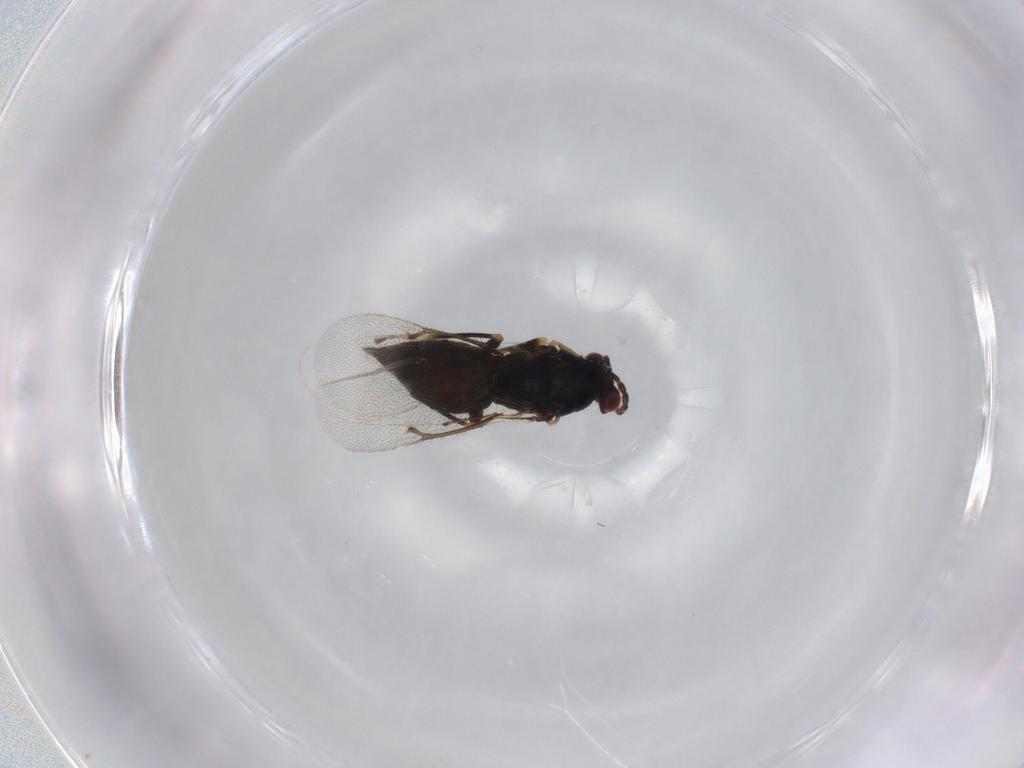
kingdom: Animalia
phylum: Arthropoda
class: Insecta
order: Hymenoptera
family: Eulophidae
